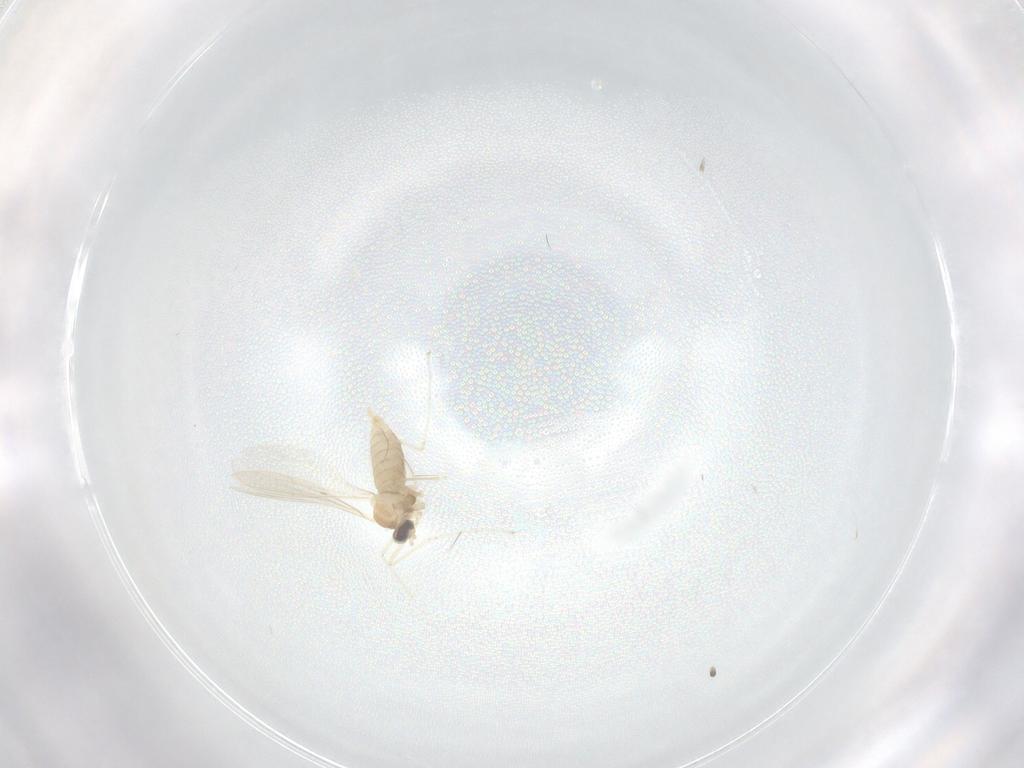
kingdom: Animalia
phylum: Arthropoda
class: Insecta
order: Diptera
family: Cecidomyiidae
